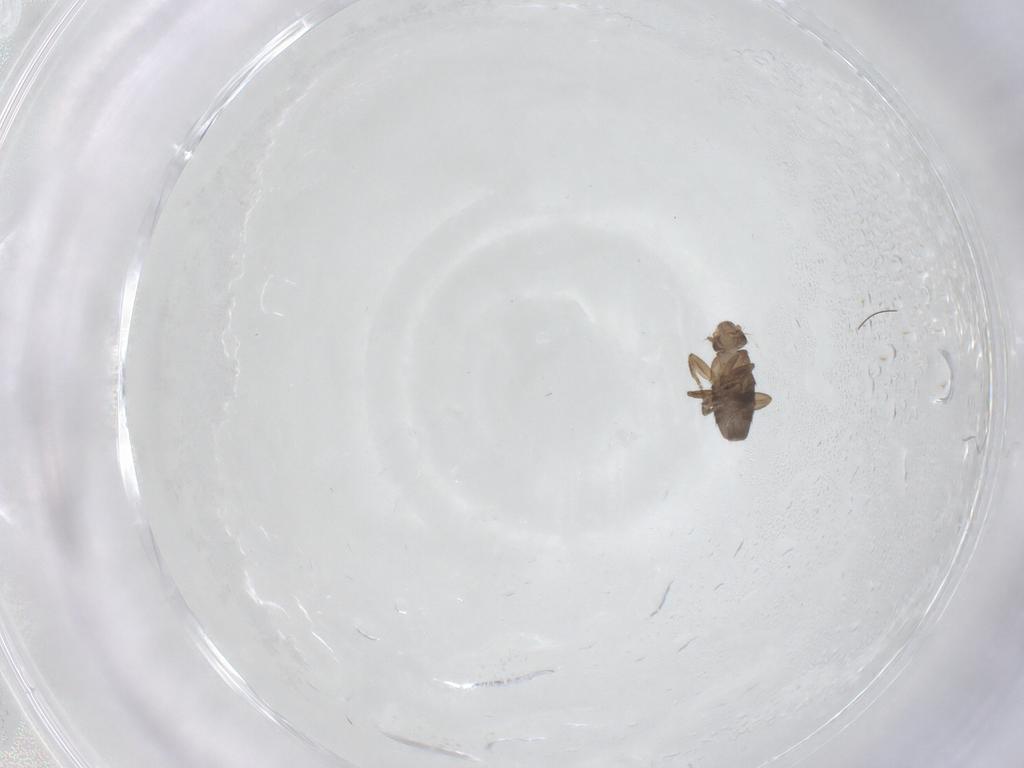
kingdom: Animalia
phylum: Arthropoda
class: Insecta
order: Diptera
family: Phoridae
